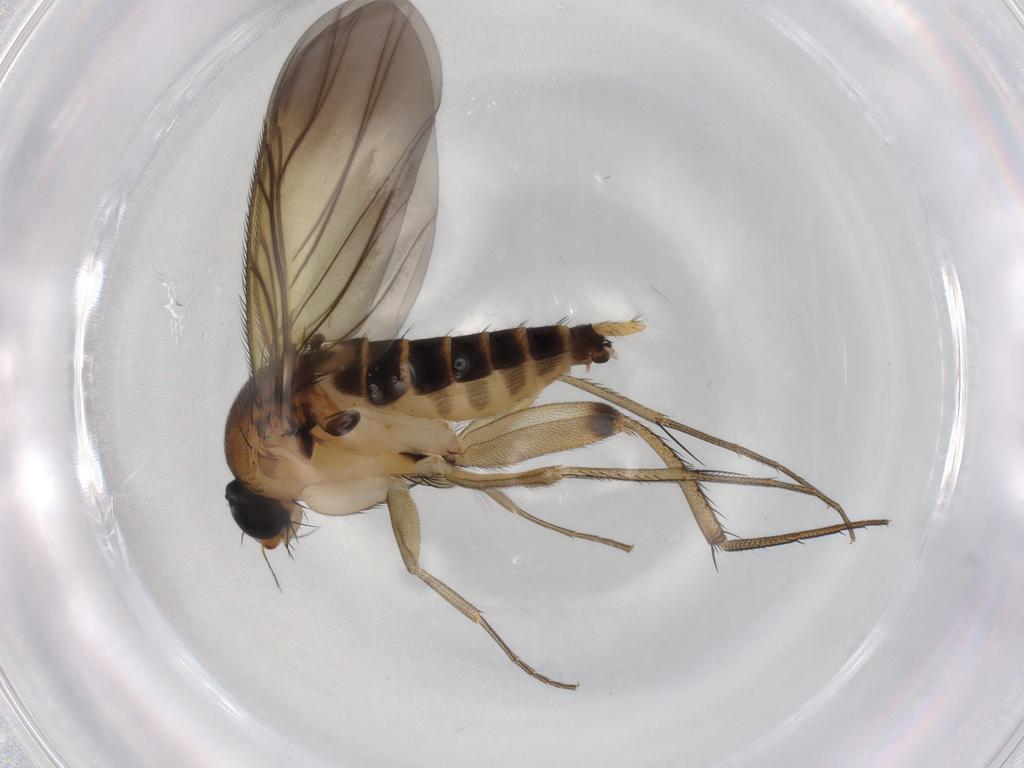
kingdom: Animalia
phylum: Arthropoda
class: Insecta
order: Diptera
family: Phoridae
